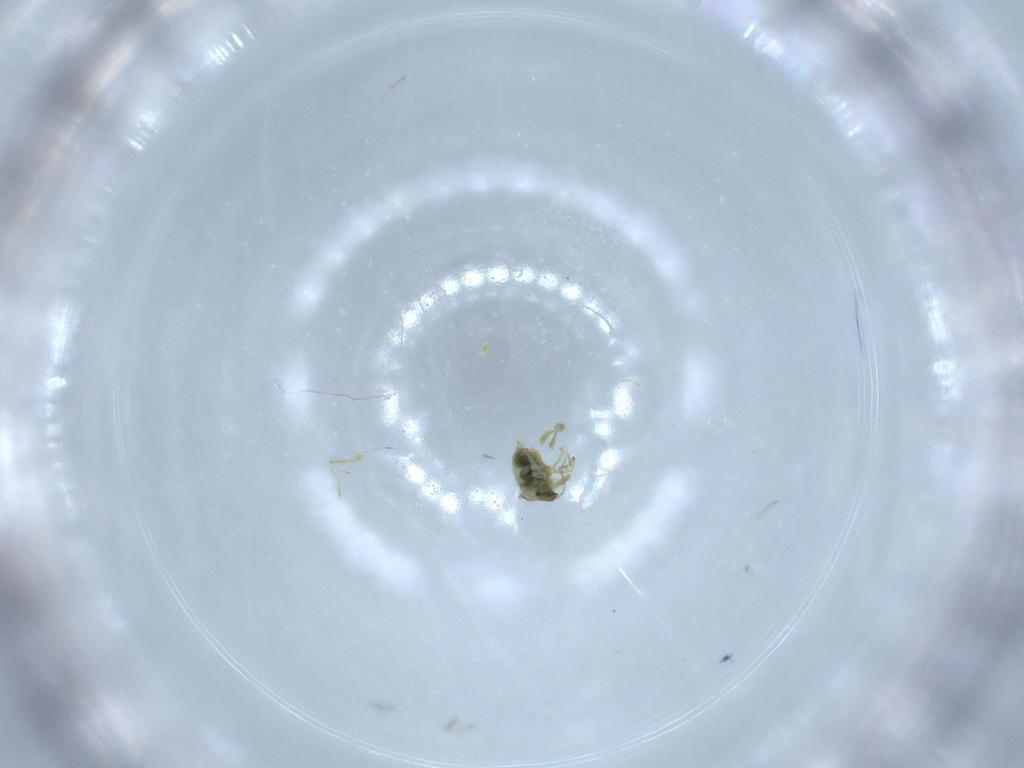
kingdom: Animalia
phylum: Arthropoda
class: Insecta
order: Neuroptera
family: Coniopterygidae
